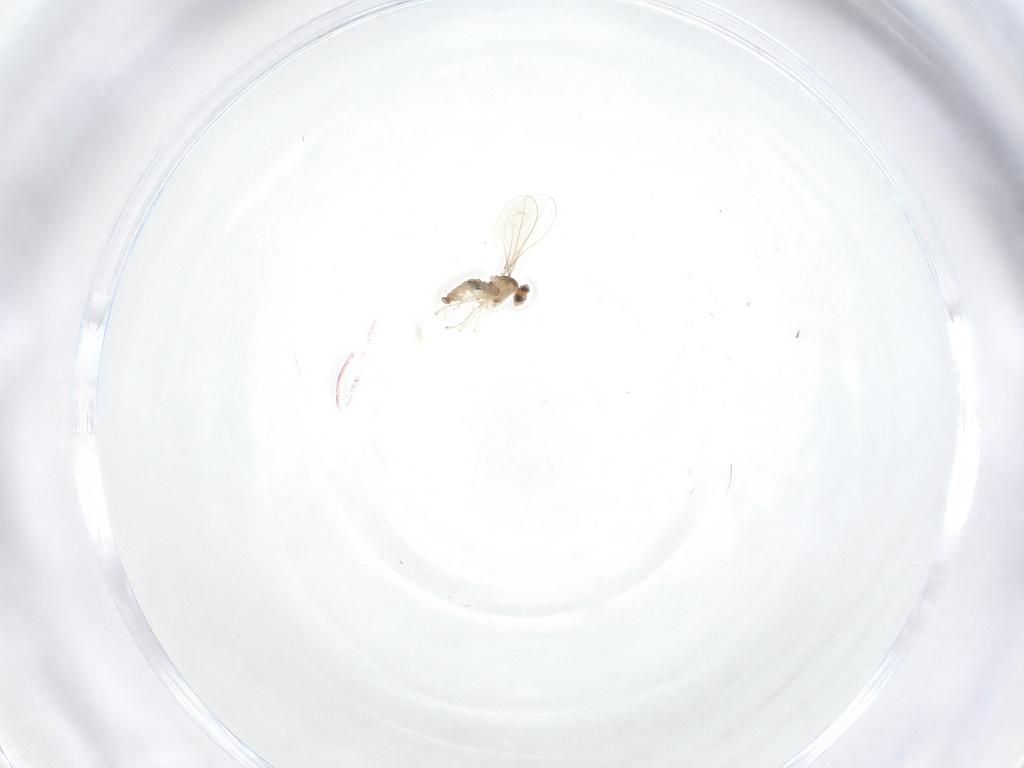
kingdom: Animalia
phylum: Arthropoda
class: Insecta
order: Diptera
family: Cecidomyiidae
